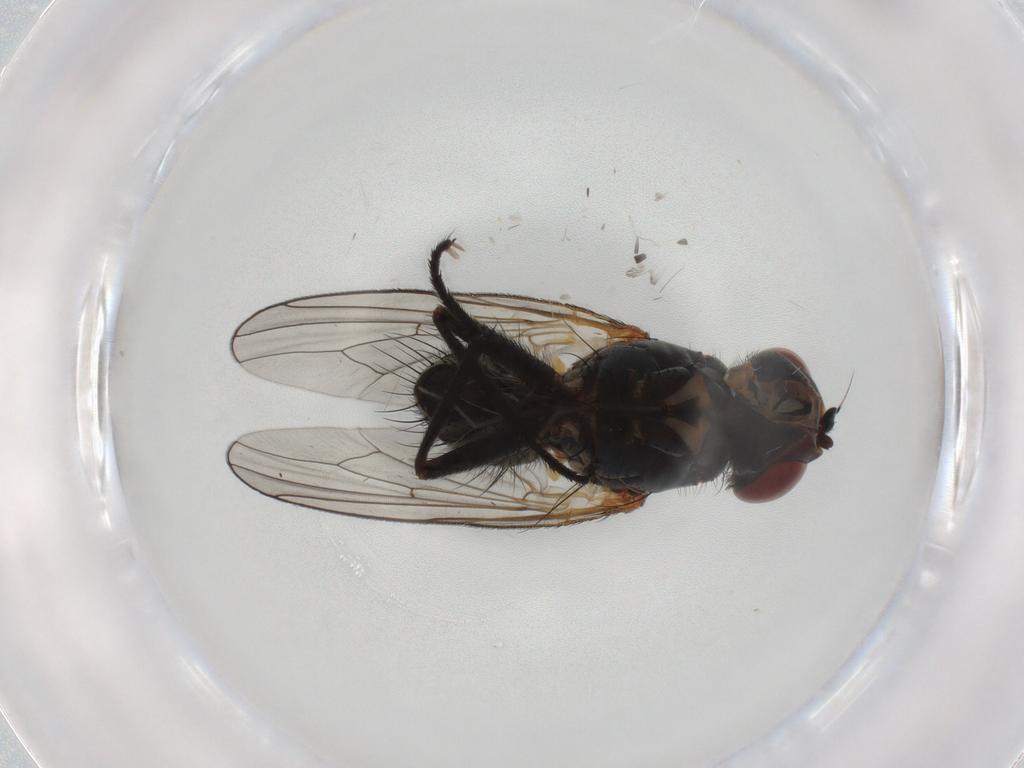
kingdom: Animalia
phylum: Arthropoda
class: Insecta
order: Diptera
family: Anthomyiidae
